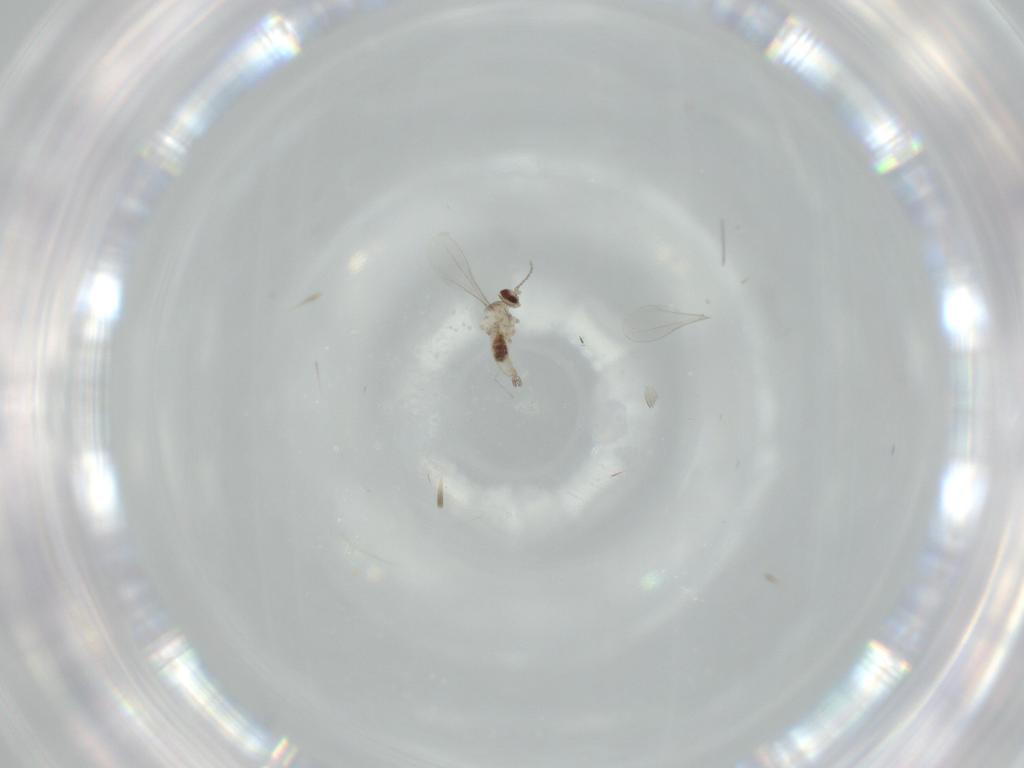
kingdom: Animalia
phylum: Arthropoda
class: Insecta
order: Diptera
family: Cecidomyiidae
